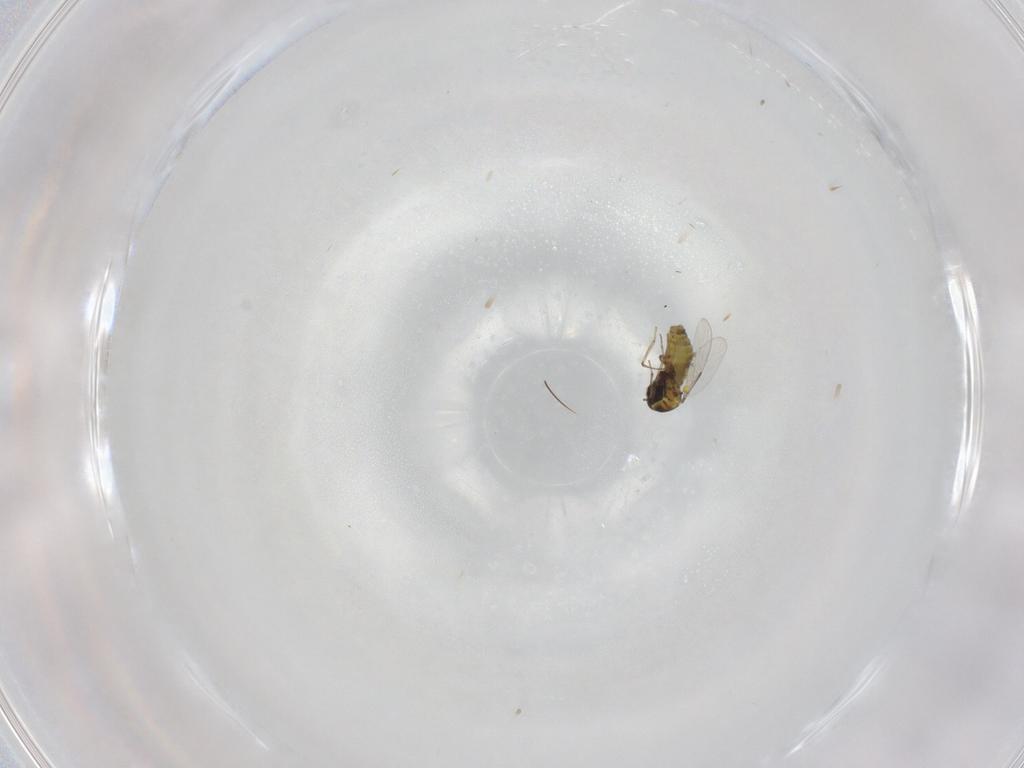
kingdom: Animalia
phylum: Arthropoda
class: Insecta
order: Diptera
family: Ceratopogonidae
